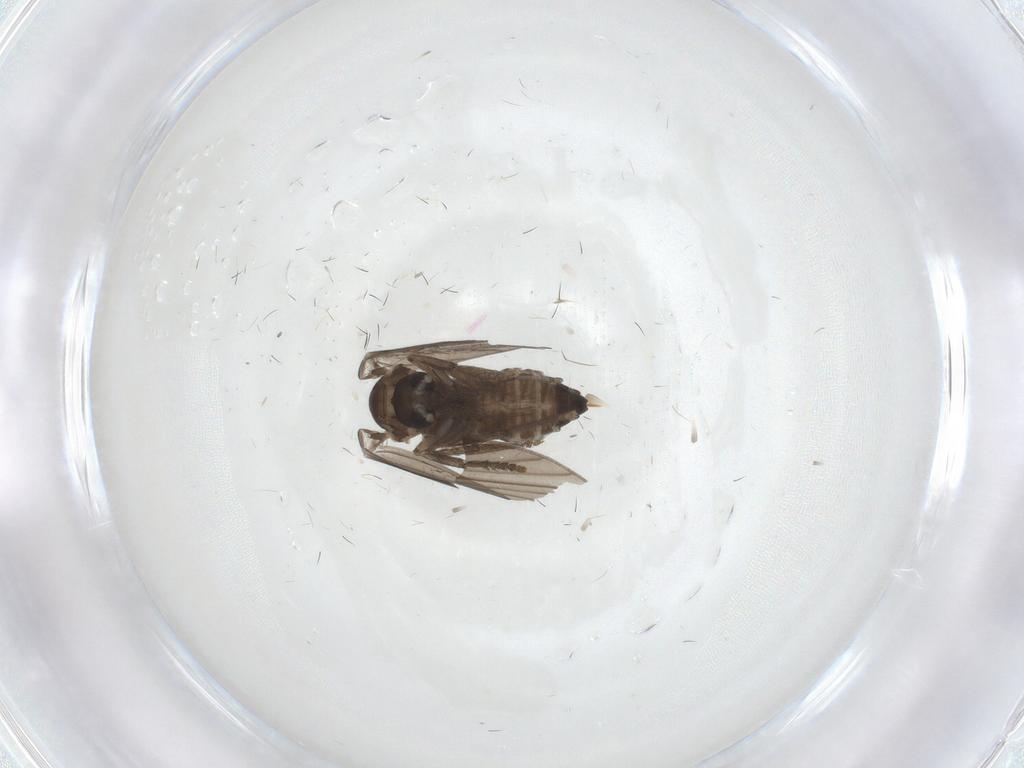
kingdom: Animalia
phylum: Arthropoda
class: Insecta
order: Diptera
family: Psychodidae
